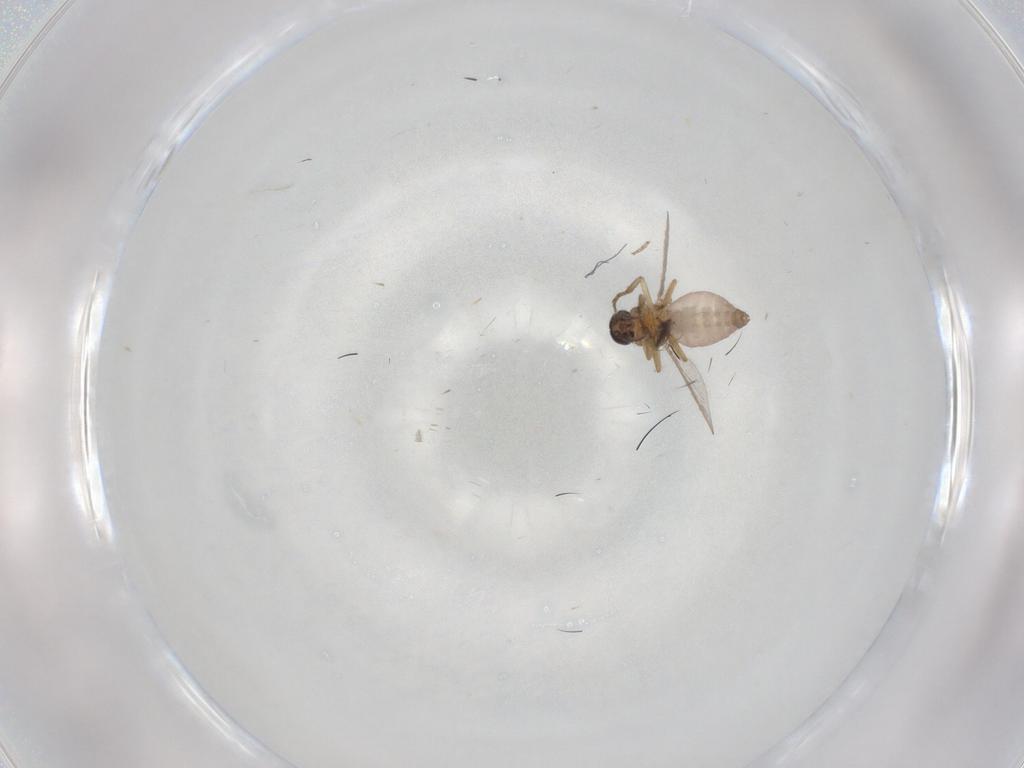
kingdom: Animalia
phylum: Arthropoda
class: Insecta
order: Diptera
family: Ceratopogonidae
